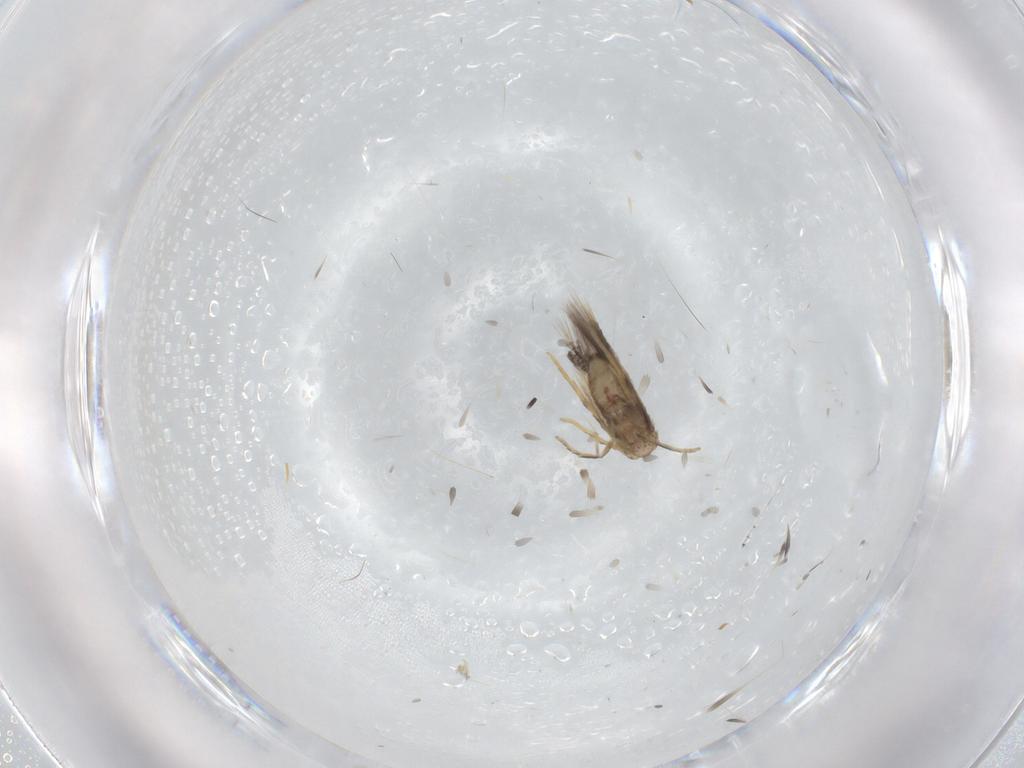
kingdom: Animalia
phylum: Arthropoda
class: Insecta
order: Lepidoptera
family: Nepticulidae
